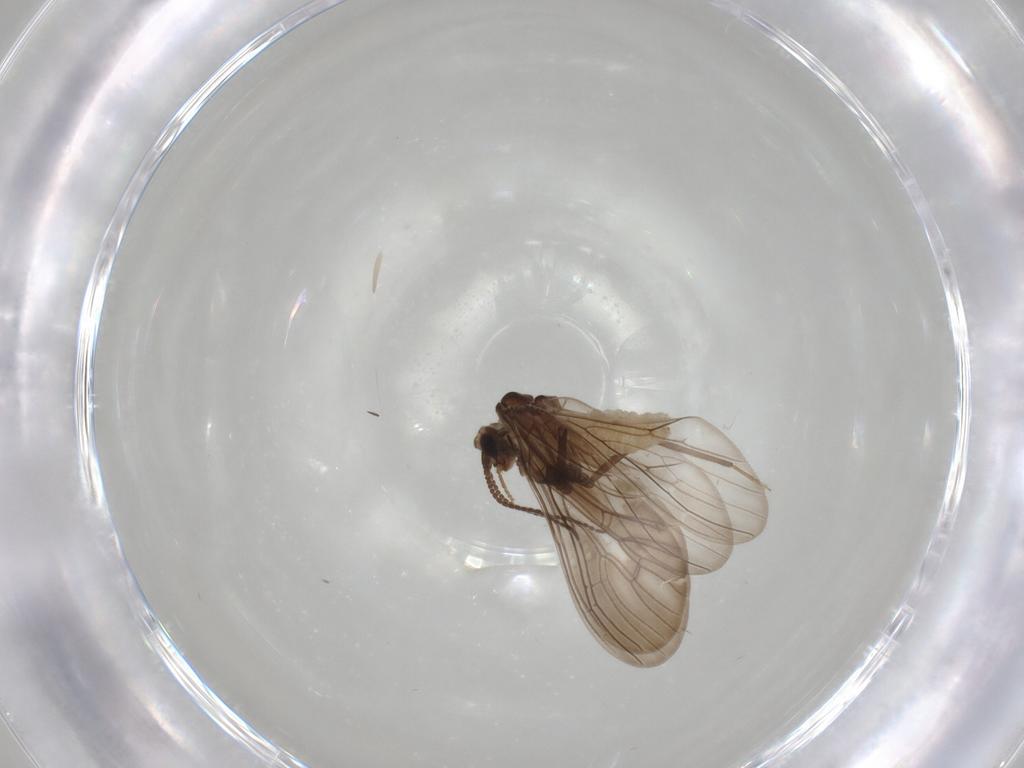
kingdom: Animalia
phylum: Arthropoda
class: Insecta
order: Neuroptera
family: Coniopterygidae
